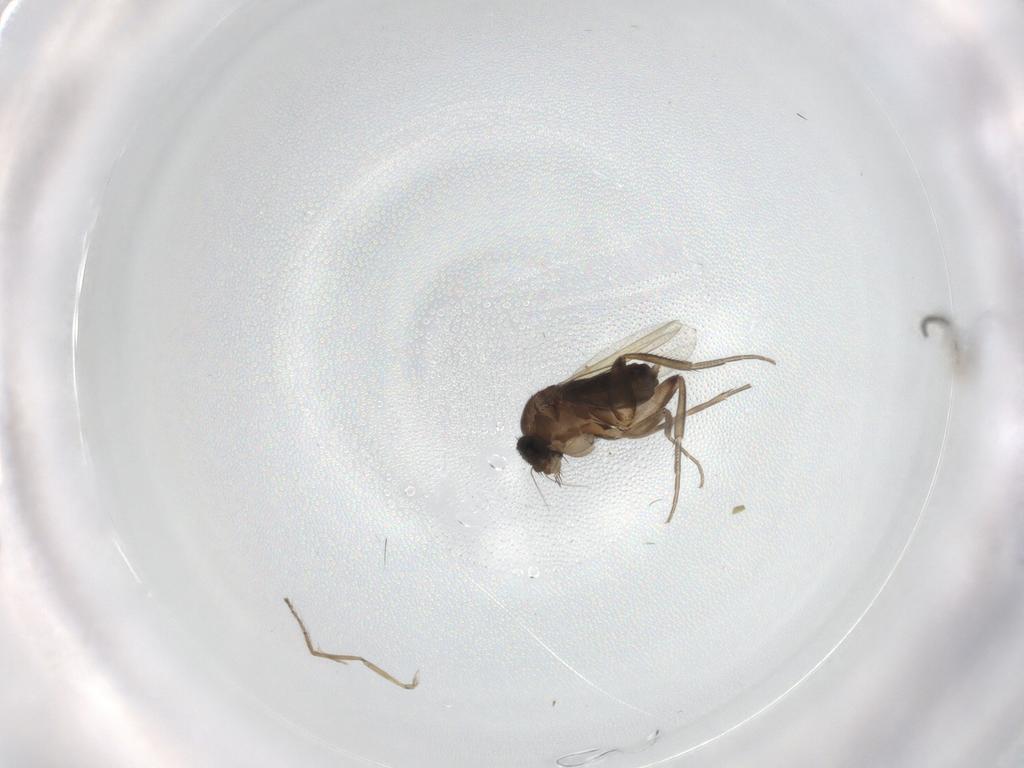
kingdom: Animalia
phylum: Arthropoda
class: Insecta
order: Diptera
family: Phoridae
